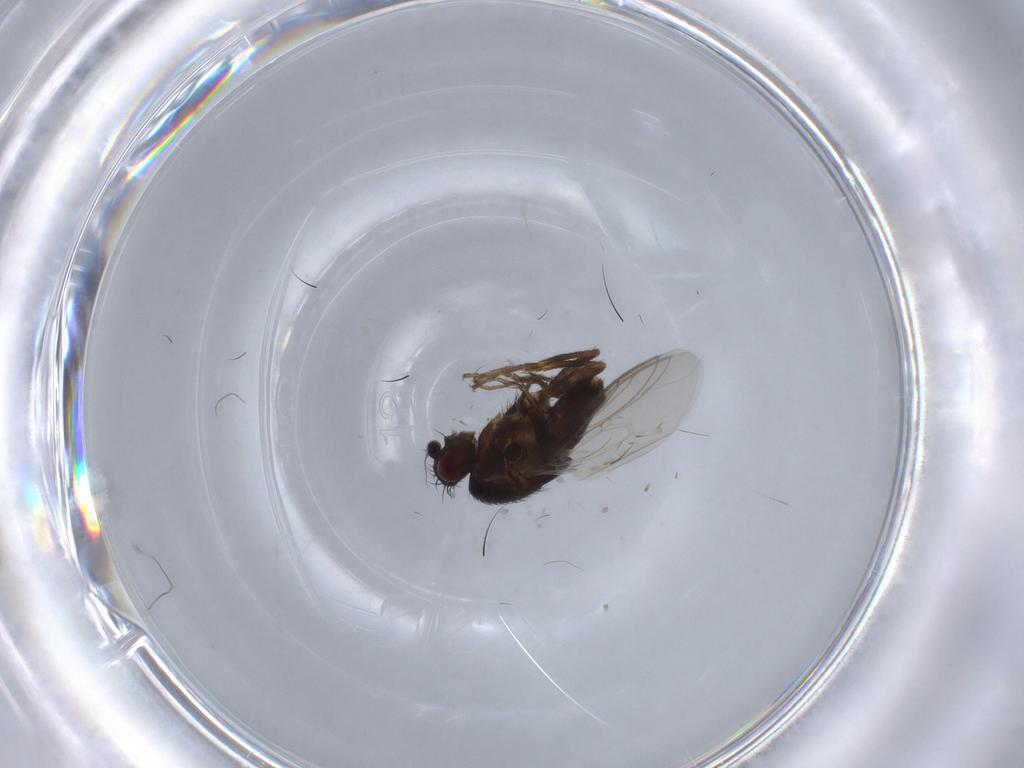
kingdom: Animalia
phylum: Arthropoda
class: Insecta
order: Diptera
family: Sphaeroceridae
